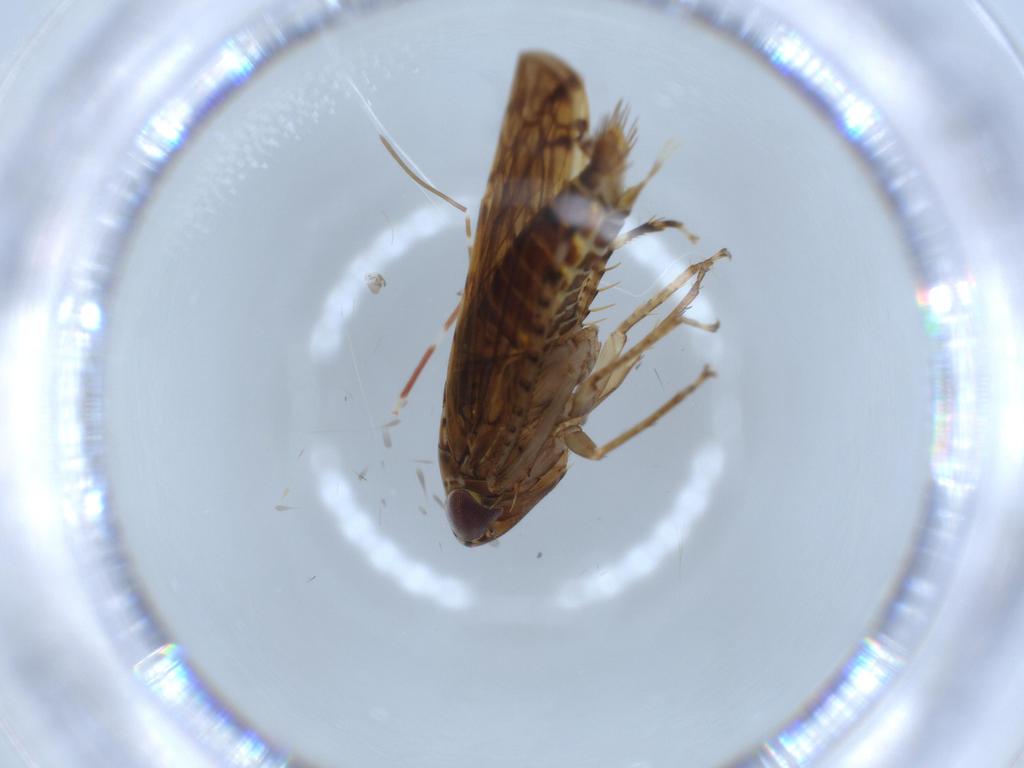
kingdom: Animalia
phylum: Arthropoda
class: Insecta
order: Hemiptera
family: Cicadellidae
